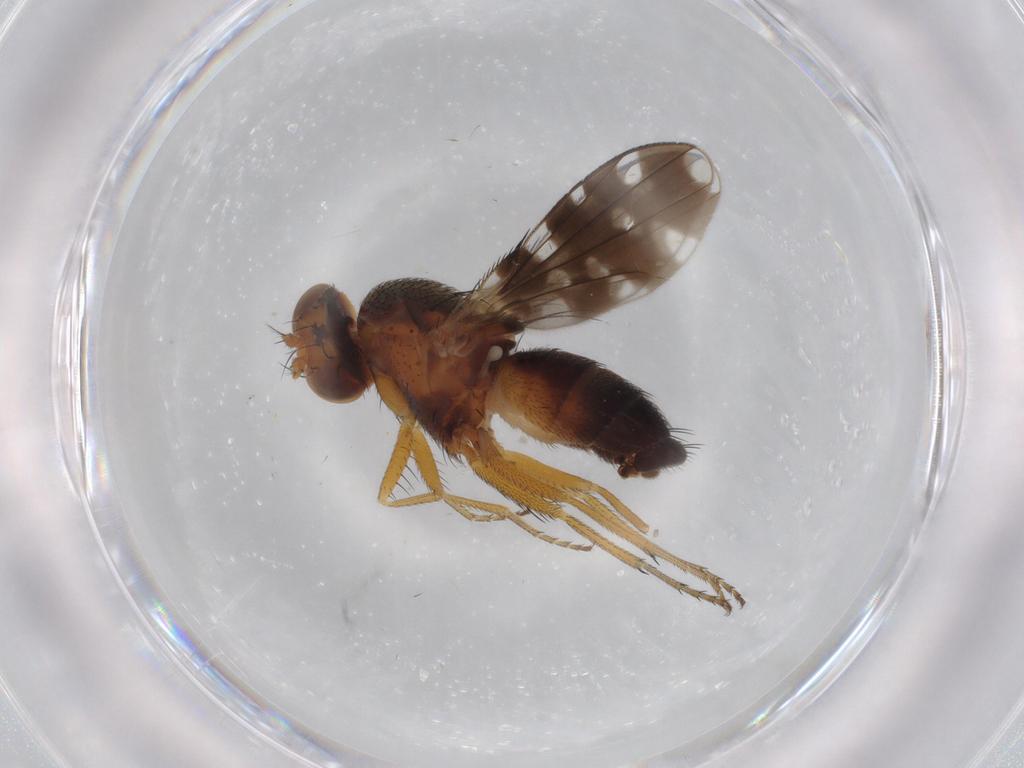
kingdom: Animalia
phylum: Arthropoda
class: Insecta
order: Diptera
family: Ephydridae
